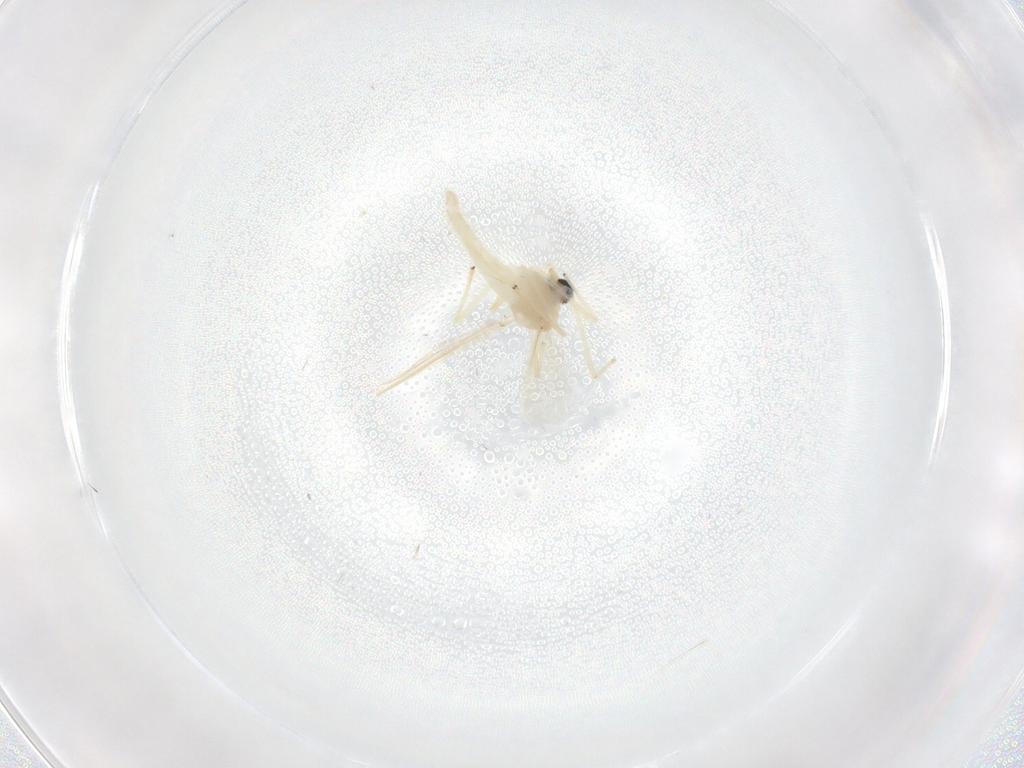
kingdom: Animalia
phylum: Arthropoda
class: Insecta
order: Diptera
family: Chironomidae
